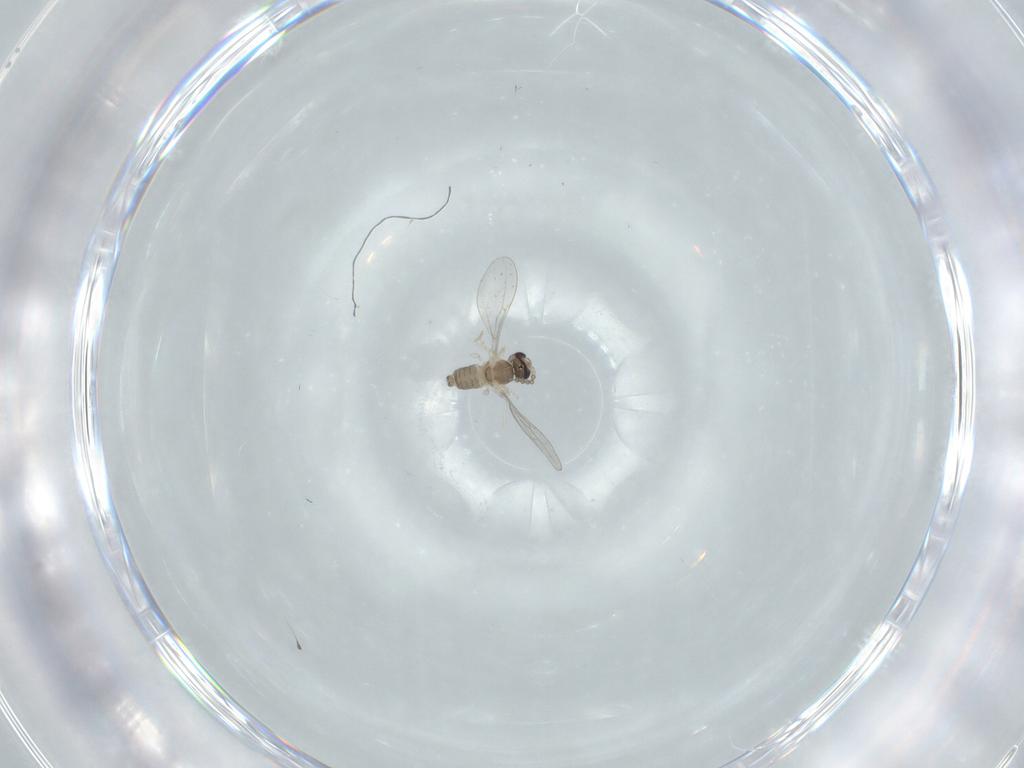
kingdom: Animalia
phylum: Arthropoda
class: Insecta
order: Diptera
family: Cecidomyiidae
